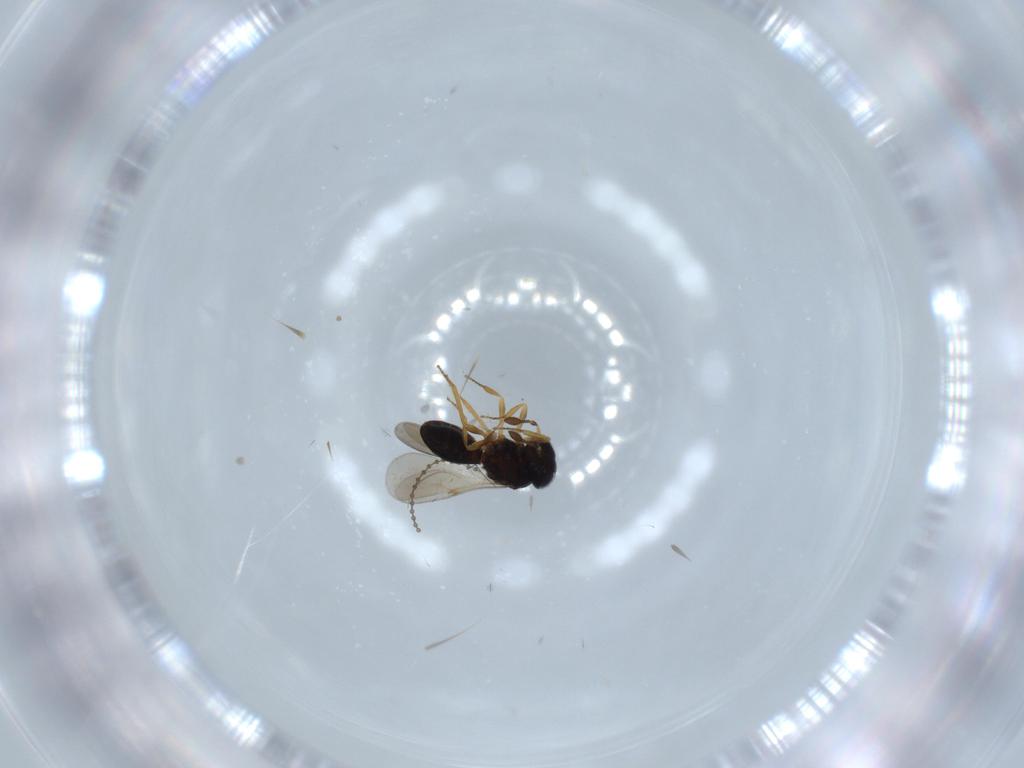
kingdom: Animalia
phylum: Arthropoda
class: Insecta
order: Hymenoptera
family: Scelionidae
